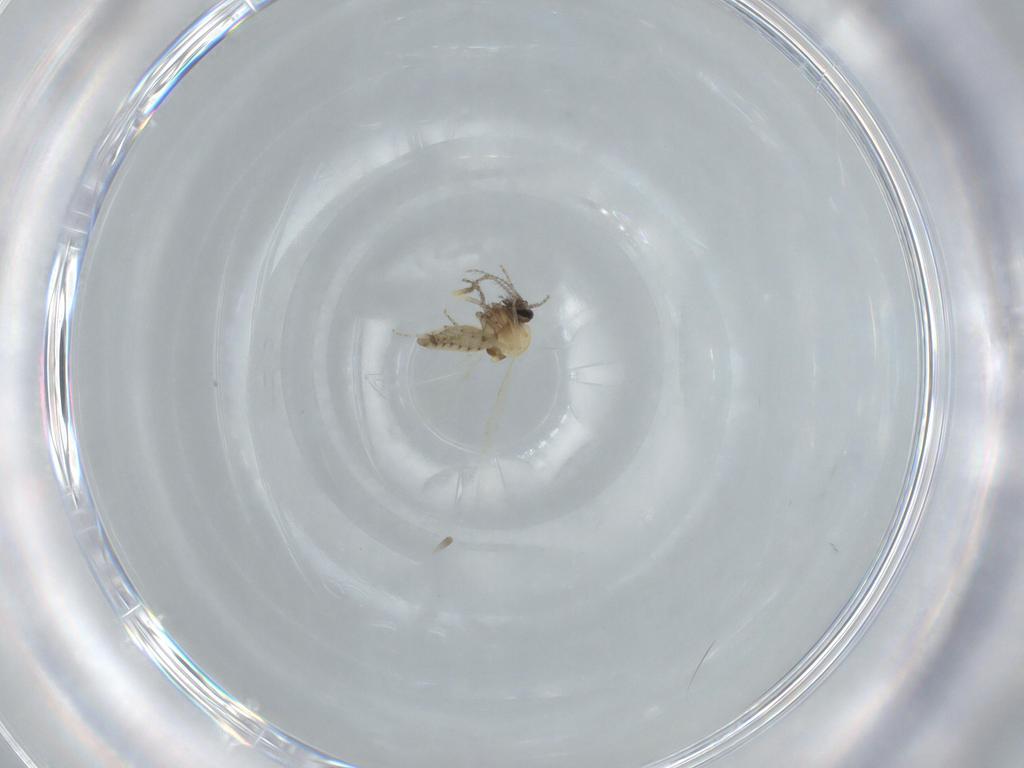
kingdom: Animalia
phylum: Arthropoda
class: Insecta
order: Diptera
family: Ceratopogonidae
